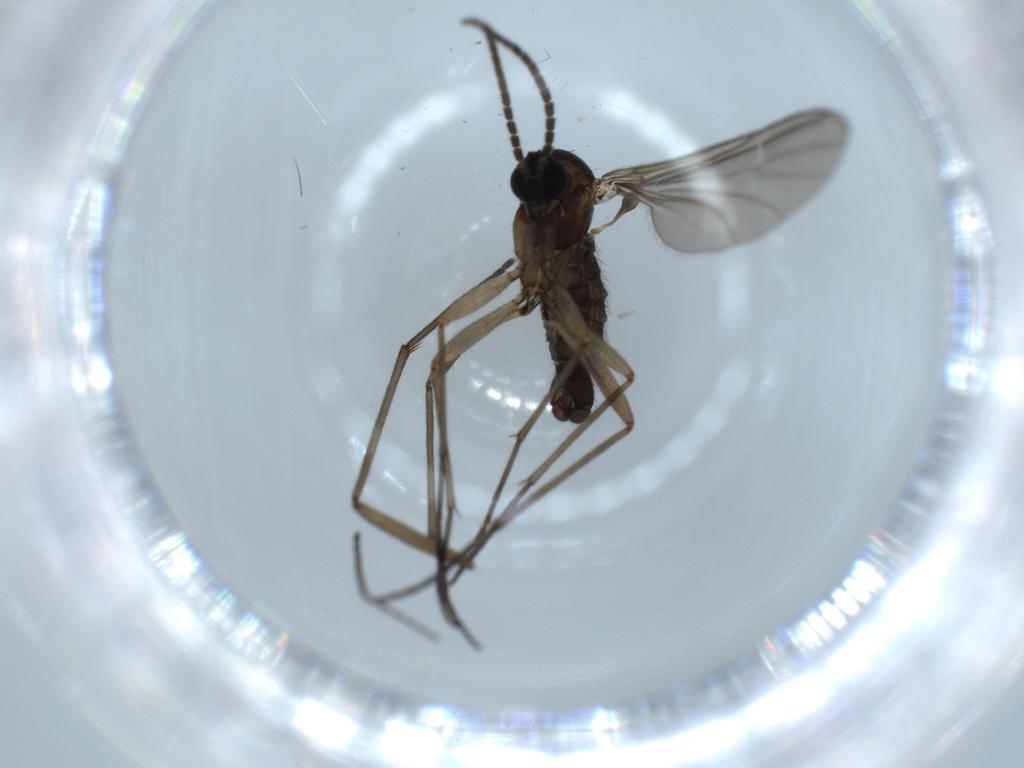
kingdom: Animalia
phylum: Arthropoda
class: Insecta
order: Diptera
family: Sciaridae
